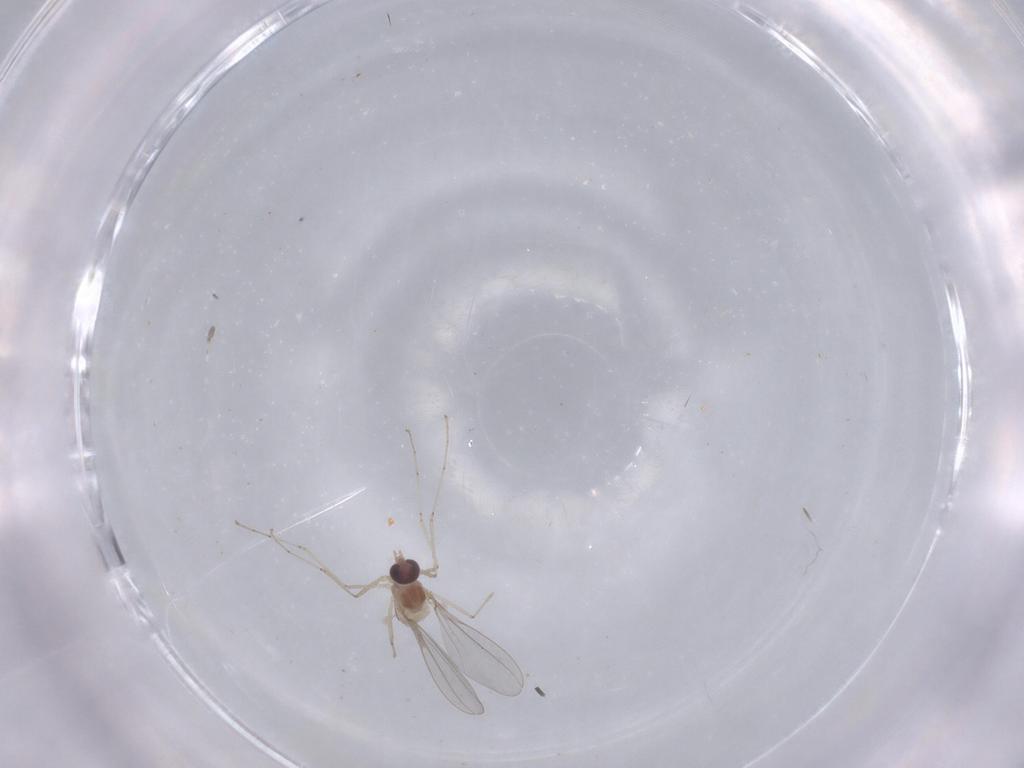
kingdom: Animalia
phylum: Arthropoda
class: Insecta
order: Diptera
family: Cecidomyiidae
